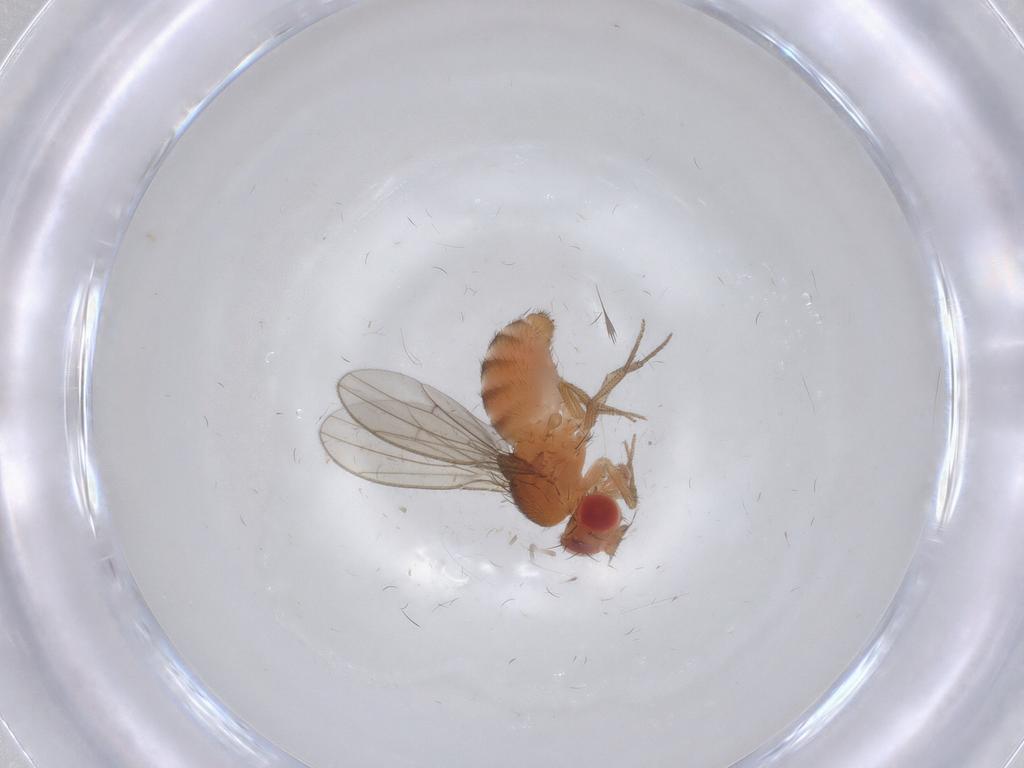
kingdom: Animalia
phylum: Arthropoda
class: Insecta
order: Diptera
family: Drosophilidae
